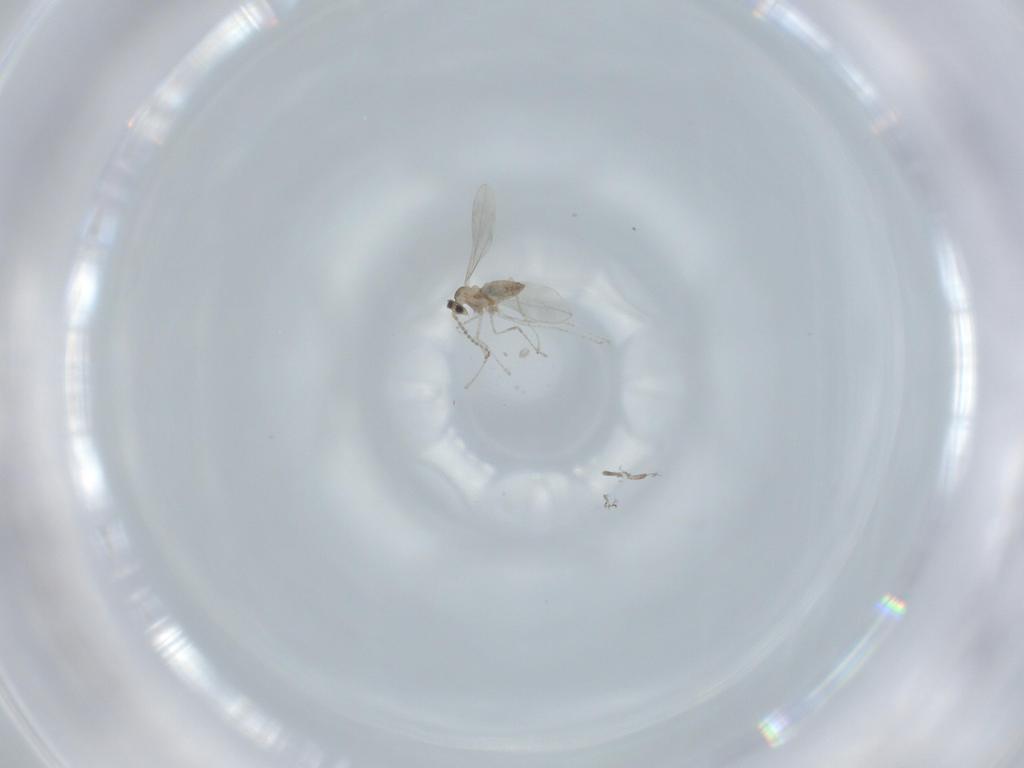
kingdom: Animalia
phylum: Arthropoda
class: Insecta
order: Diptera
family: Cecidomyiidae
